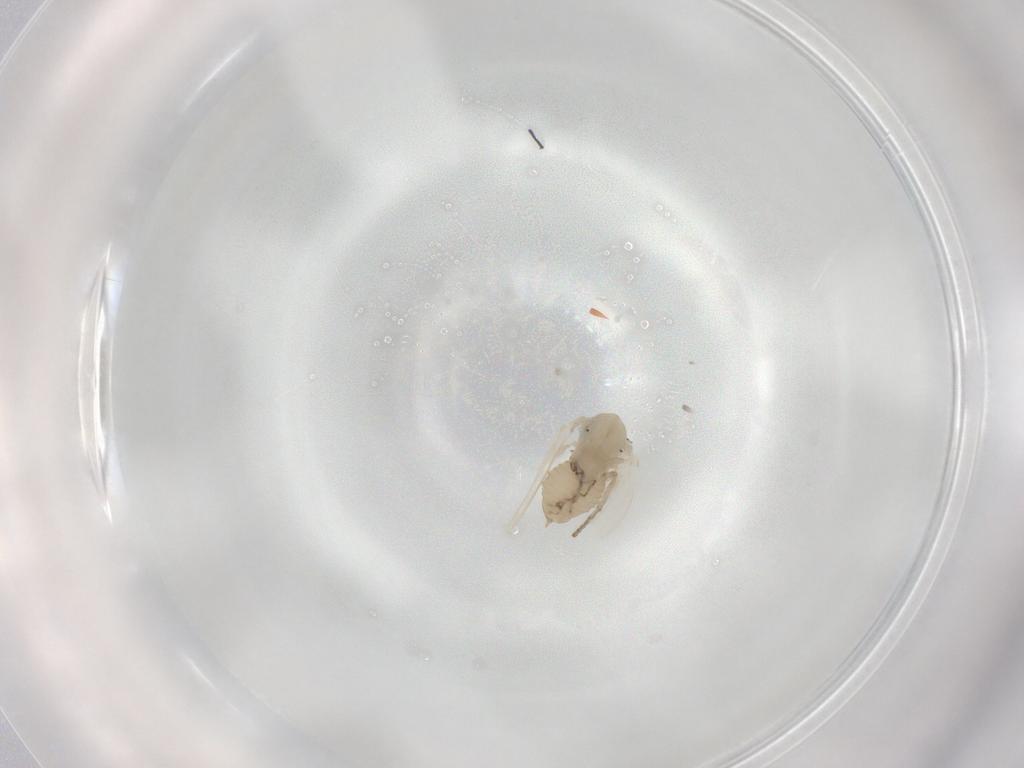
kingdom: Animalia
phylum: Arthropoda
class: Insecta
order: Diptera
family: Psychodidae
